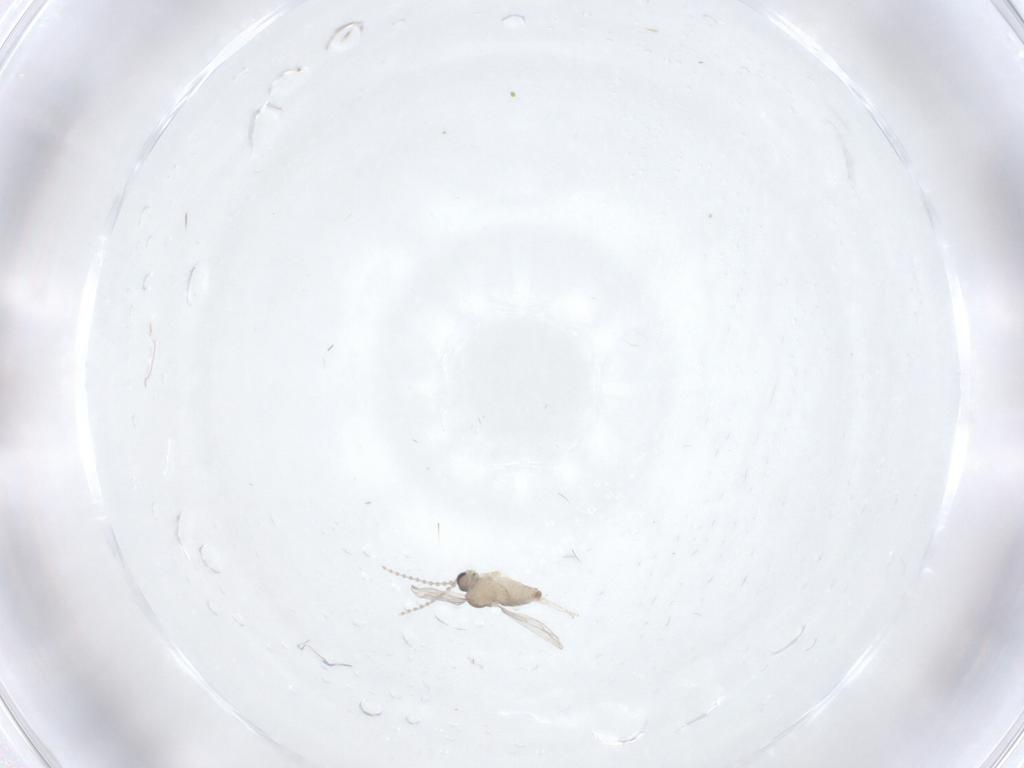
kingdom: Animalia
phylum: Arthropoda
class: Insecta
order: Diptera
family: Cecidomyiidae
